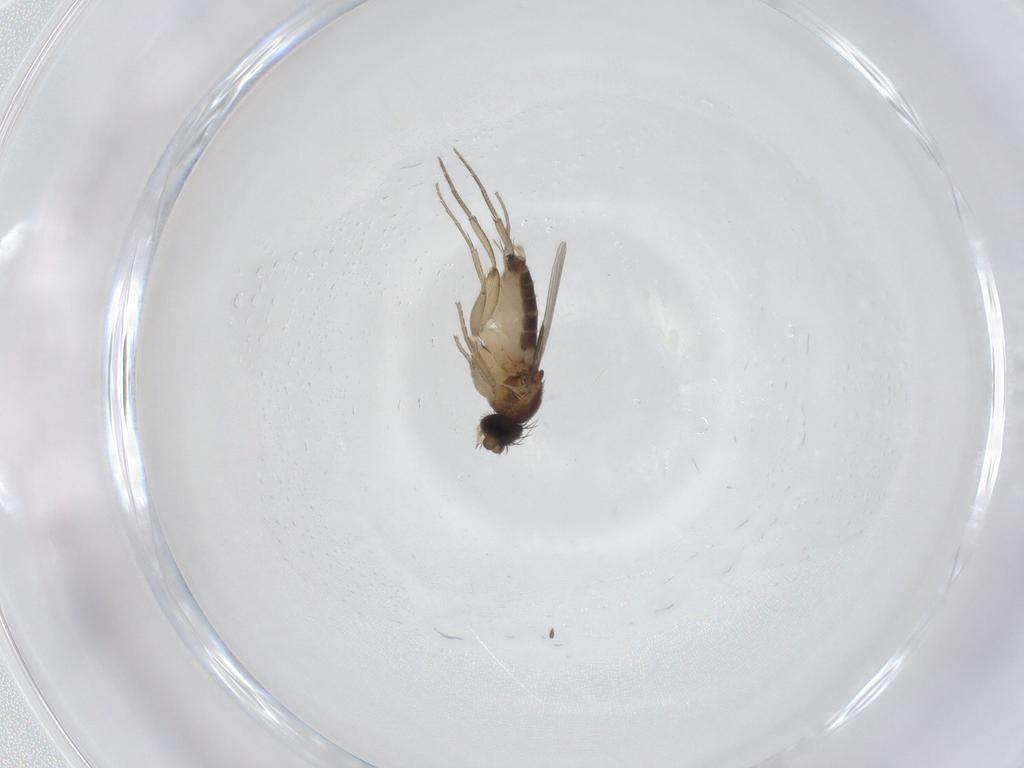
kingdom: Animalia
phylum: Arthropoda
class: Insecta
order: Diptera
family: Phoridae
